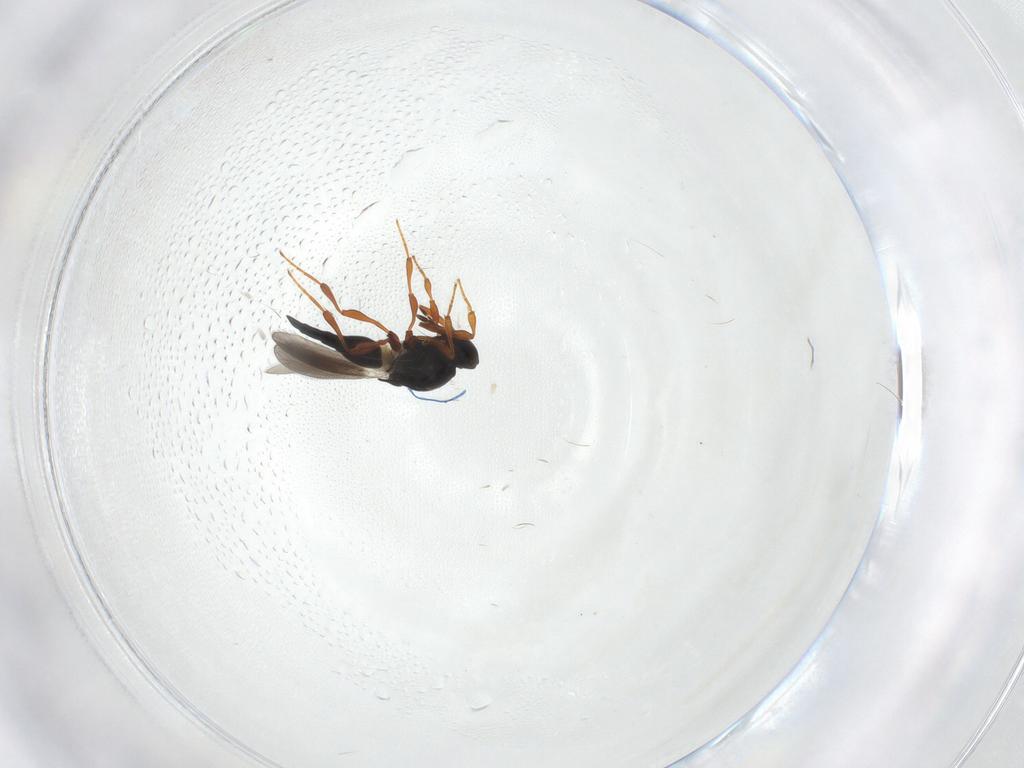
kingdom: Animalia
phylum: Arthropoda
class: Insecta
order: Hymenoptera
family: Platygastridae
